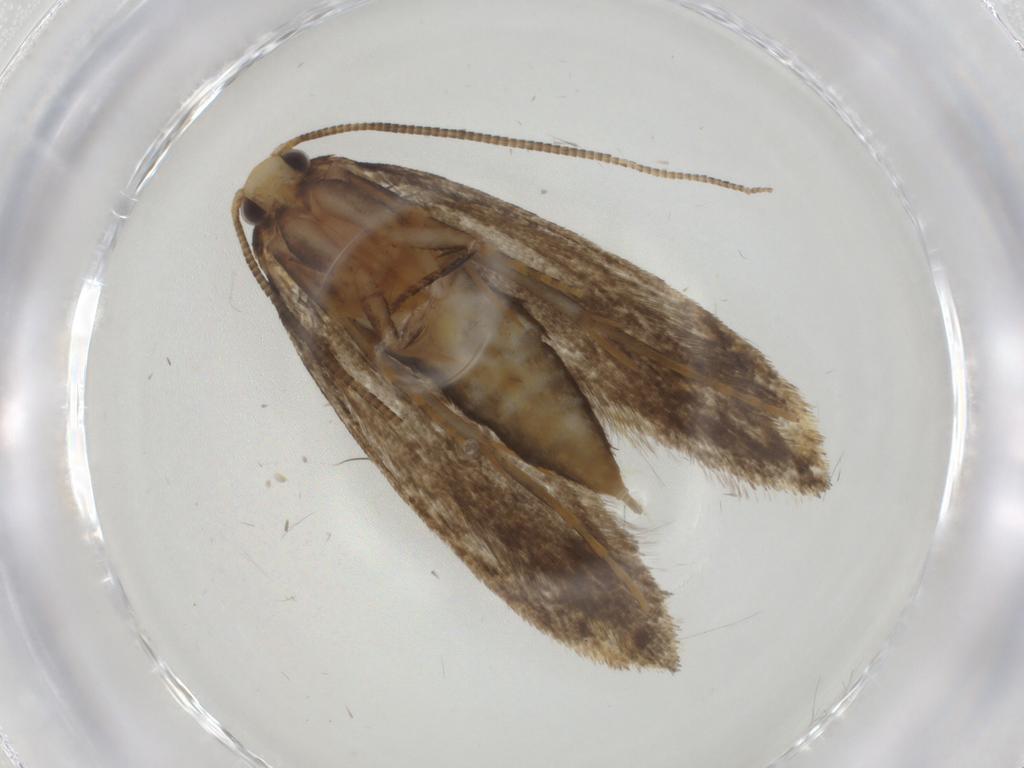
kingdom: Animalia
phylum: Arthropoda
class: Insecta
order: Lepidoptera
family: Tineidae
